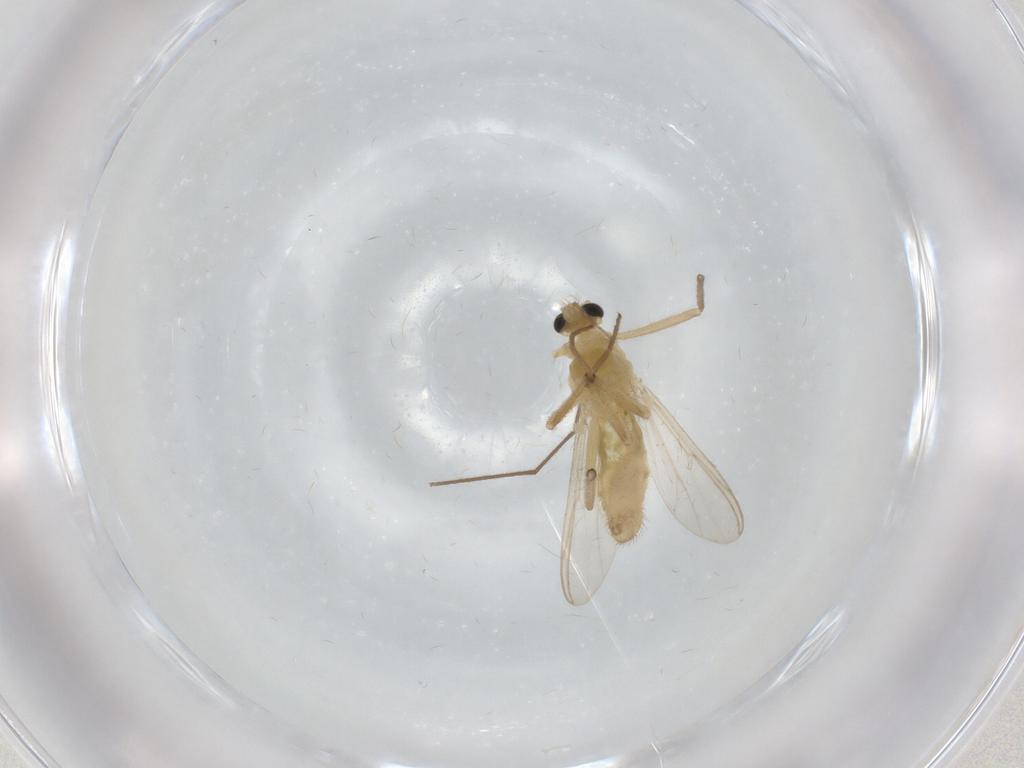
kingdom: Animalia
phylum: Arthropoda
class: Insecta
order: Diptera
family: Chironomidae
